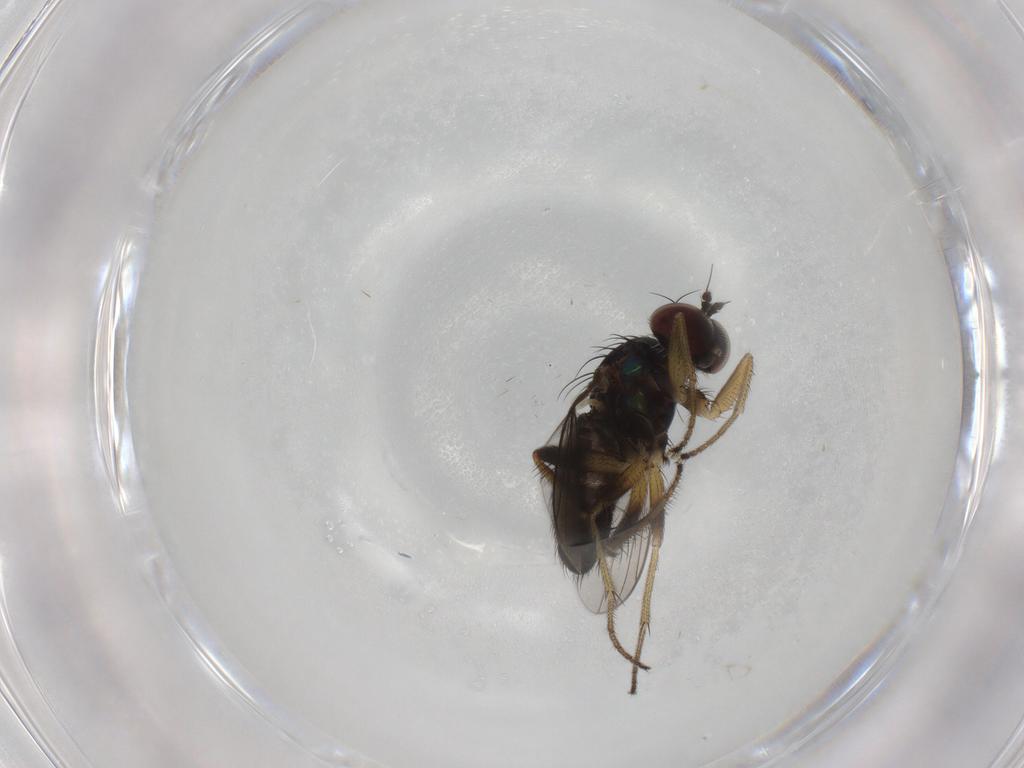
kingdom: Animalia
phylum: Arthropoda
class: Insecta
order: Diptera
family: Dolichopodidae
